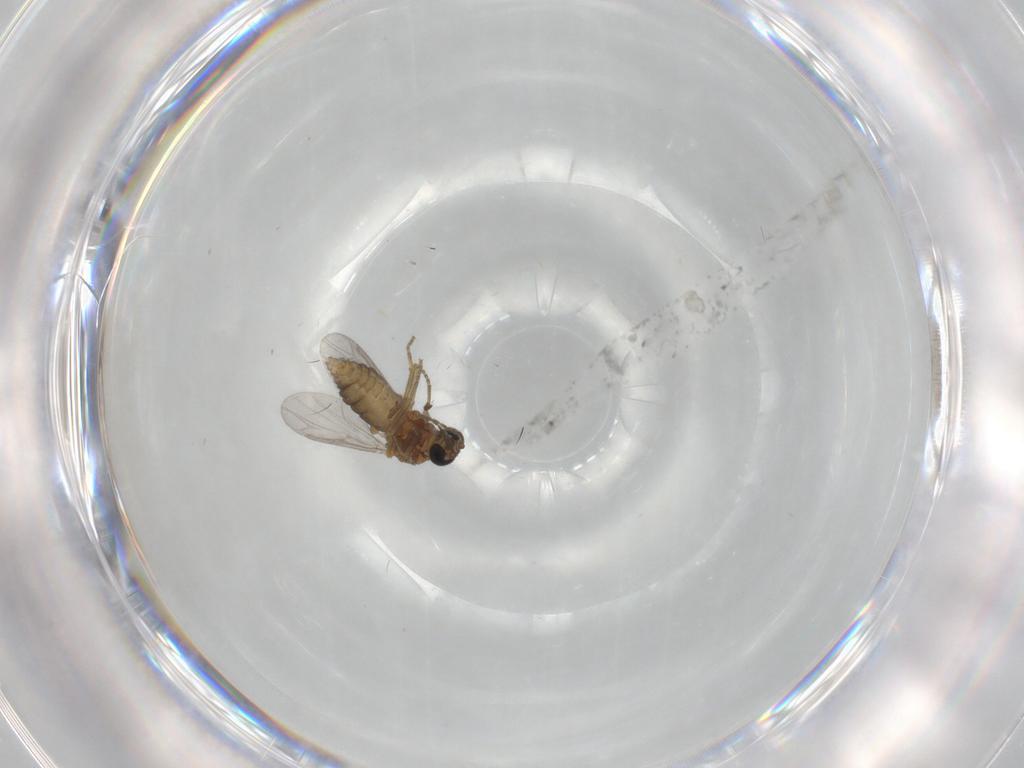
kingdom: Animalia
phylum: Arthropoda
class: Insecta
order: Diptera
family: Ceratopogonidae
